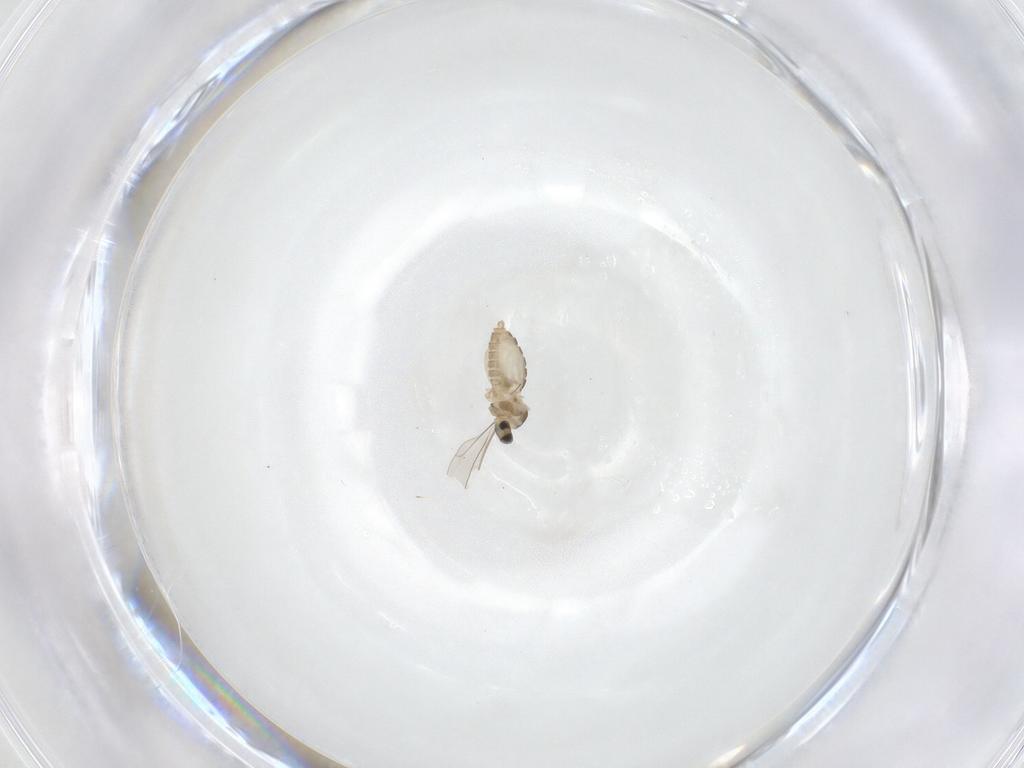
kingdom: Animalia
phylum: Arthropoda
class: Insecta
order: Diptera
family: Cecidomyiidae
